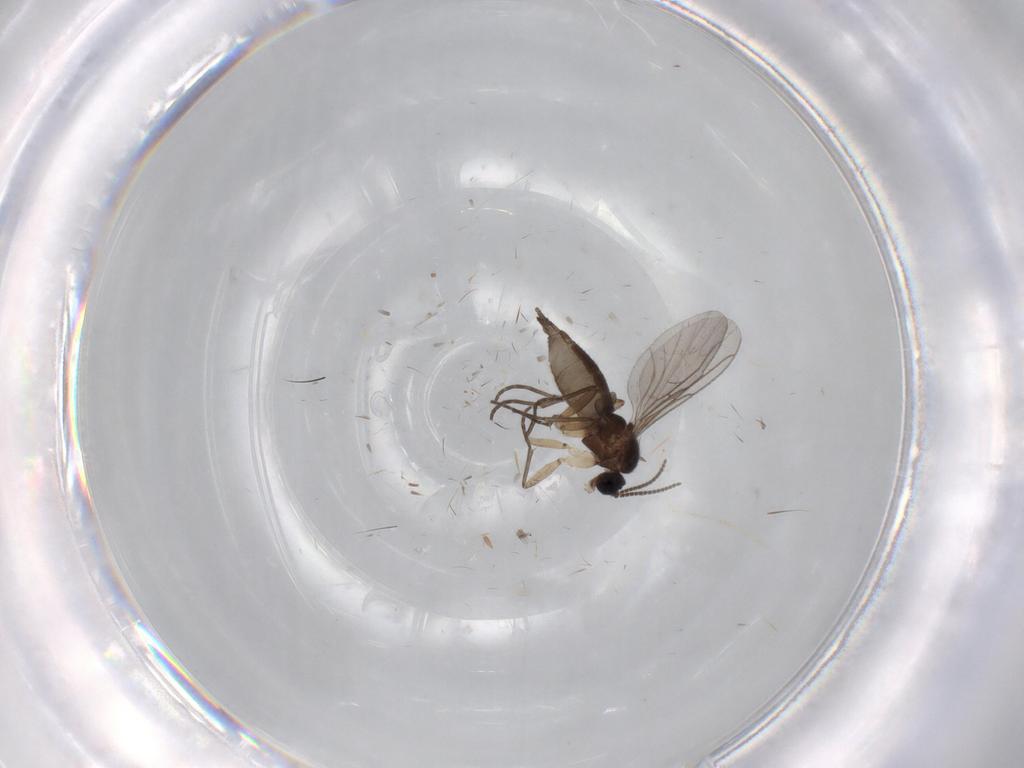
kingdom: Animalia
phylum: Arthropoda
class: Insecta
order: Diptera
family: Sciaridae
